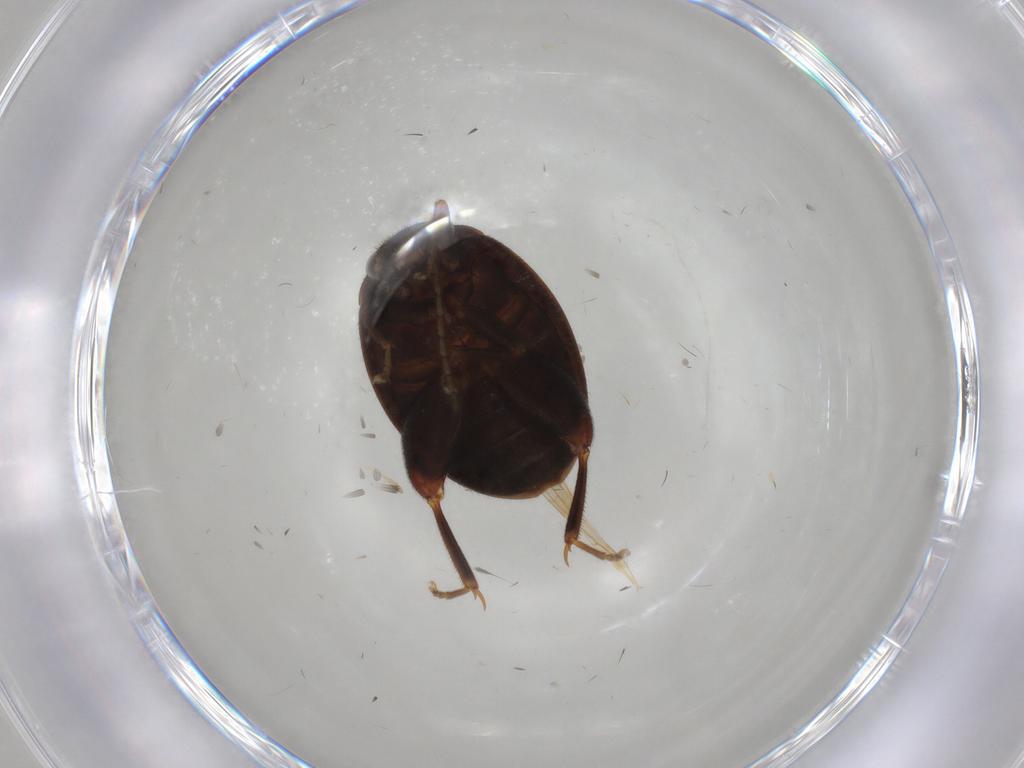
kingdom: Animalia
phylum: Arthropoda
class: Insecta
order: Coleoptera
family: Scirtidae
